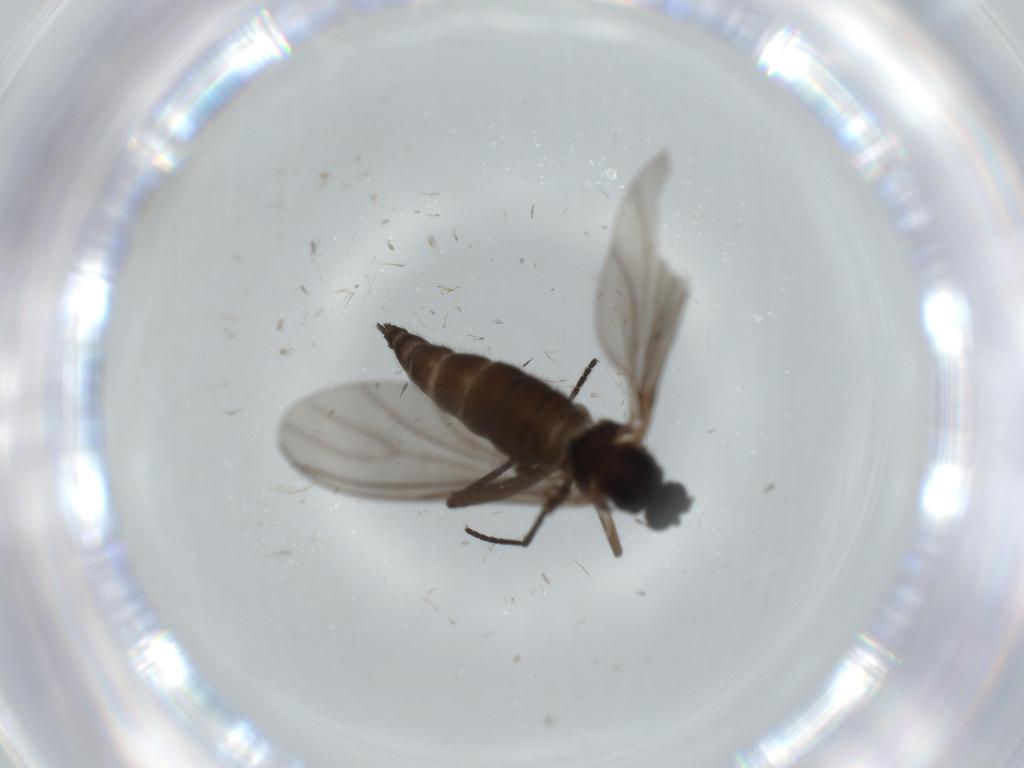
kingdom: Animalia
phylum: Arthropoda
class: Insecta
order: Diptera
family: Sciaridae
